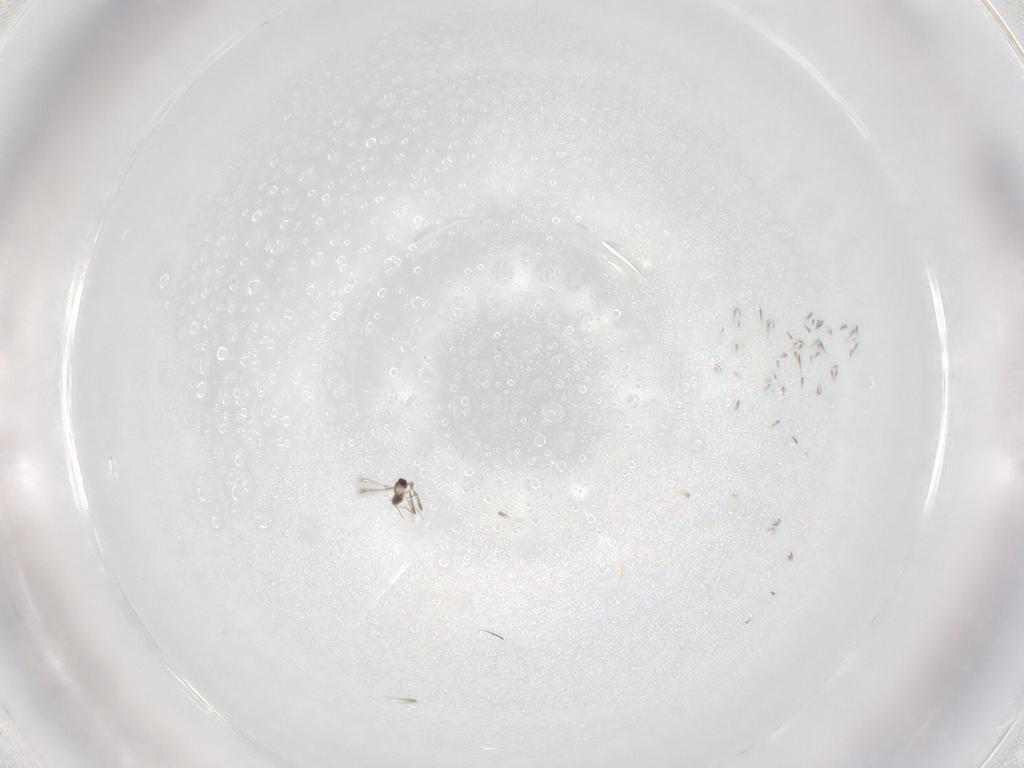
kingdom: Animalia
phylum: Arthropoda
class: Insecta
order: Hymenoptera
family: Mymaridae
